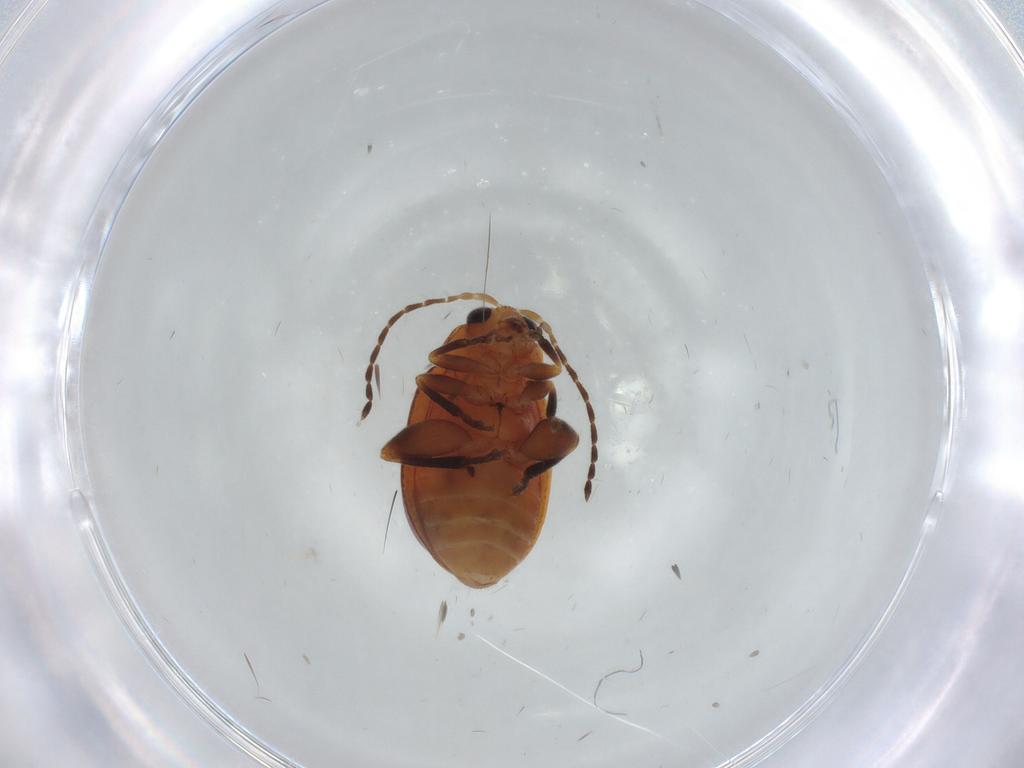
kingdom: Animalia
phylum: Arthropoda
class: Insecta
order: Coleoptera
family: Chrysomelidae
